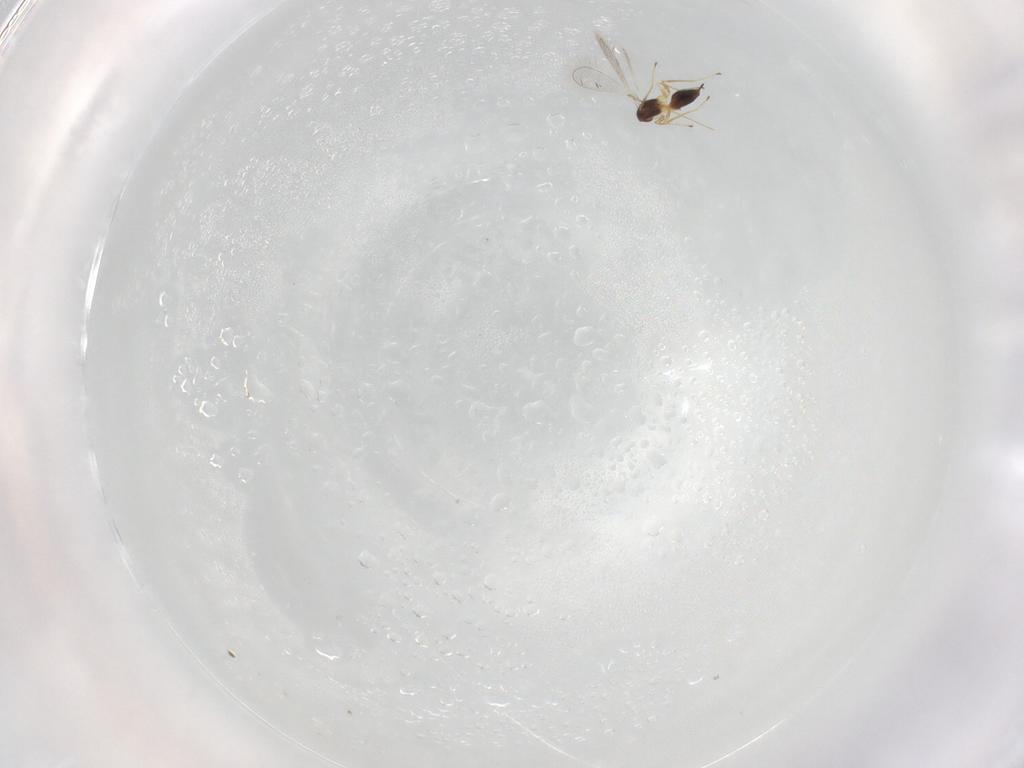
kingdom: Animalia
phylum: Arthropoda
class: Insecta
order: Hymenoptera
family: Mymaridae
